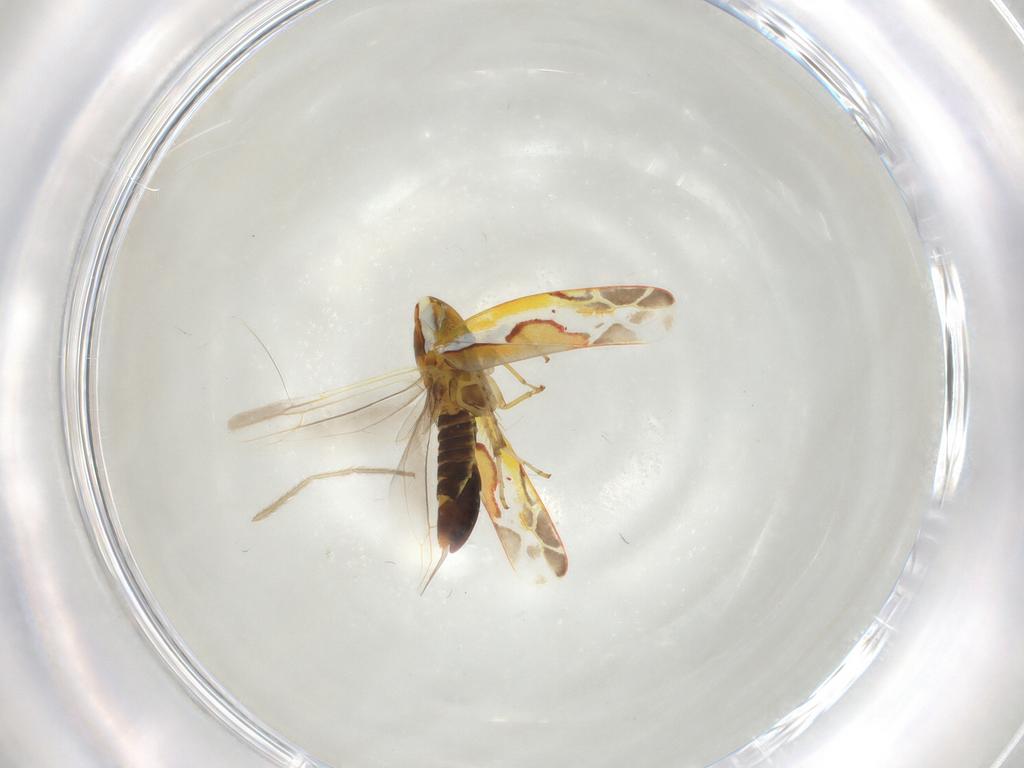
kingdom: Animalia
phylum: Arthropoda
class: Insecta
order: Hemiptera
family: Cicadellidae
